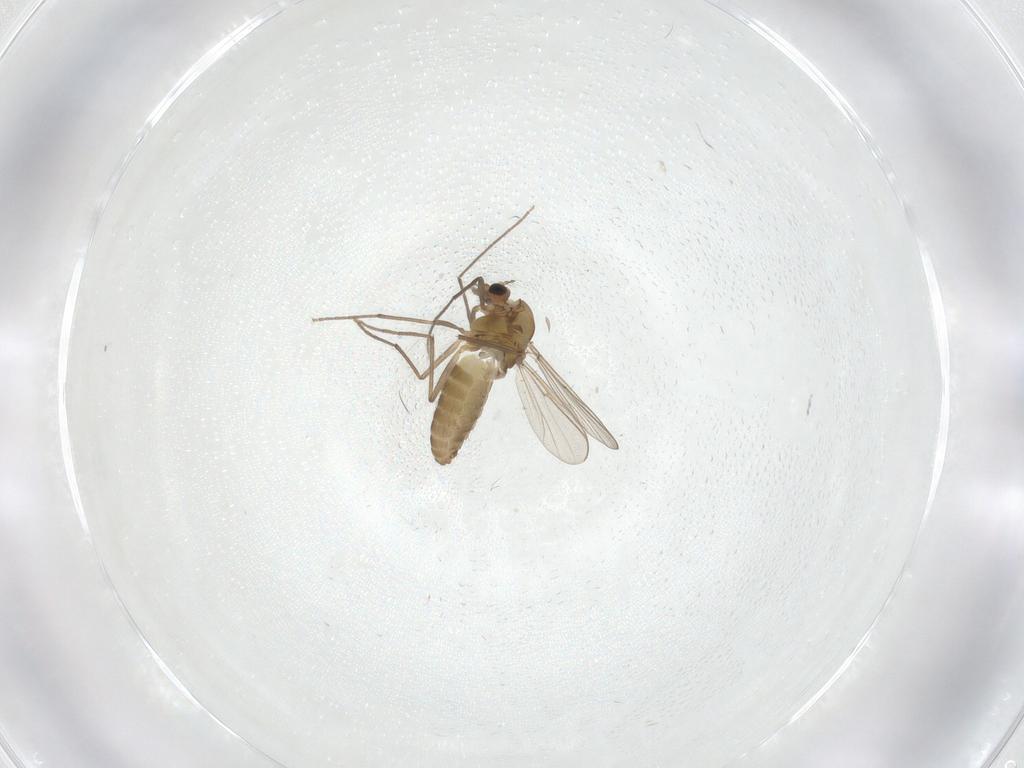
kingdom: Animalia
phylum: Arthropoda
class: Insecta
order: Diptera
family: Chironomidae
